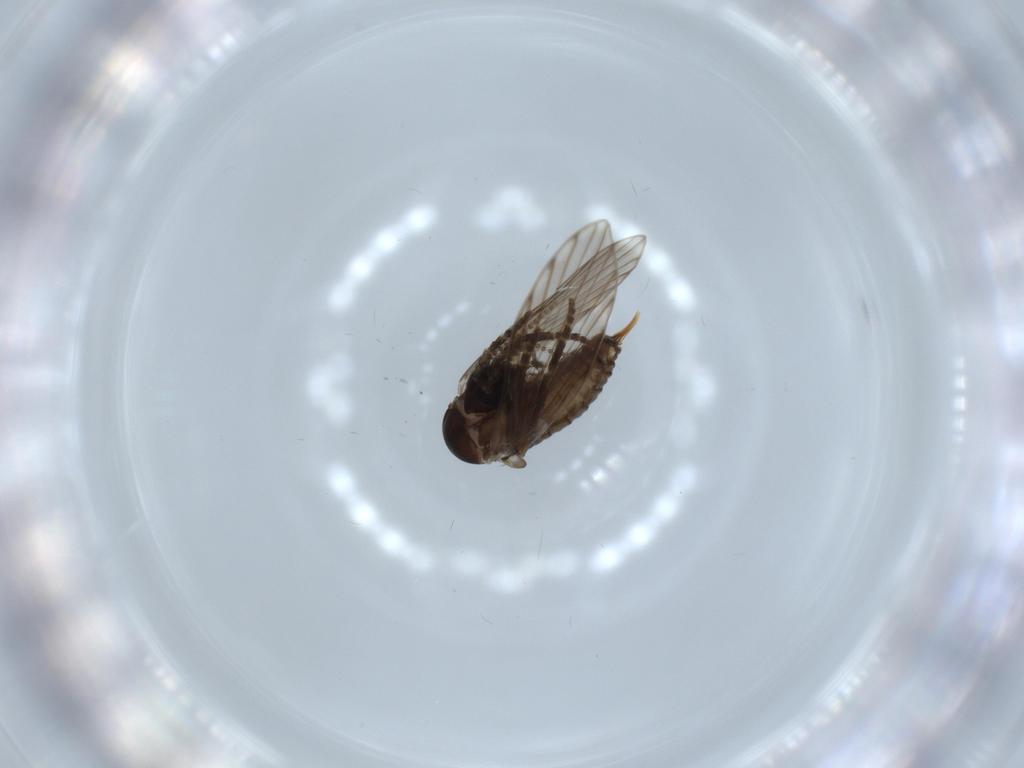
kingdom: Animalia
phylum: Arthropoda
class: Insecta
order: Diptera
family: Psychodidae
